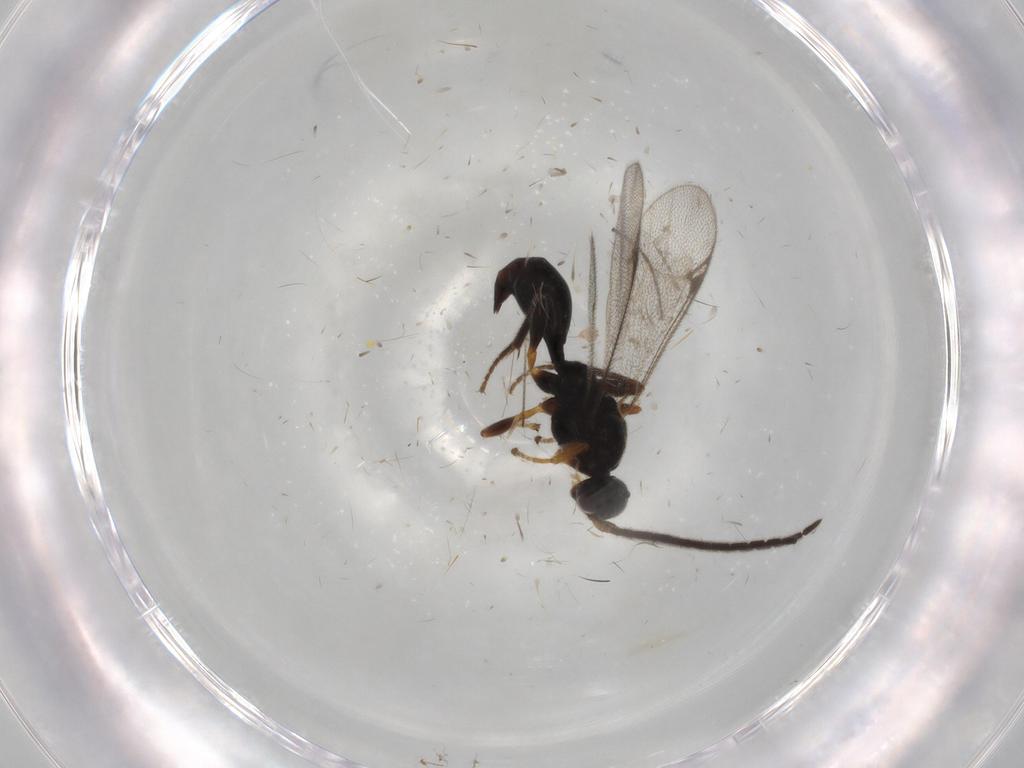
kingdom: Animalia
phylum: Arthropoda
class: Insecta
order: Hymenoptera
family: Proctotrupidae
